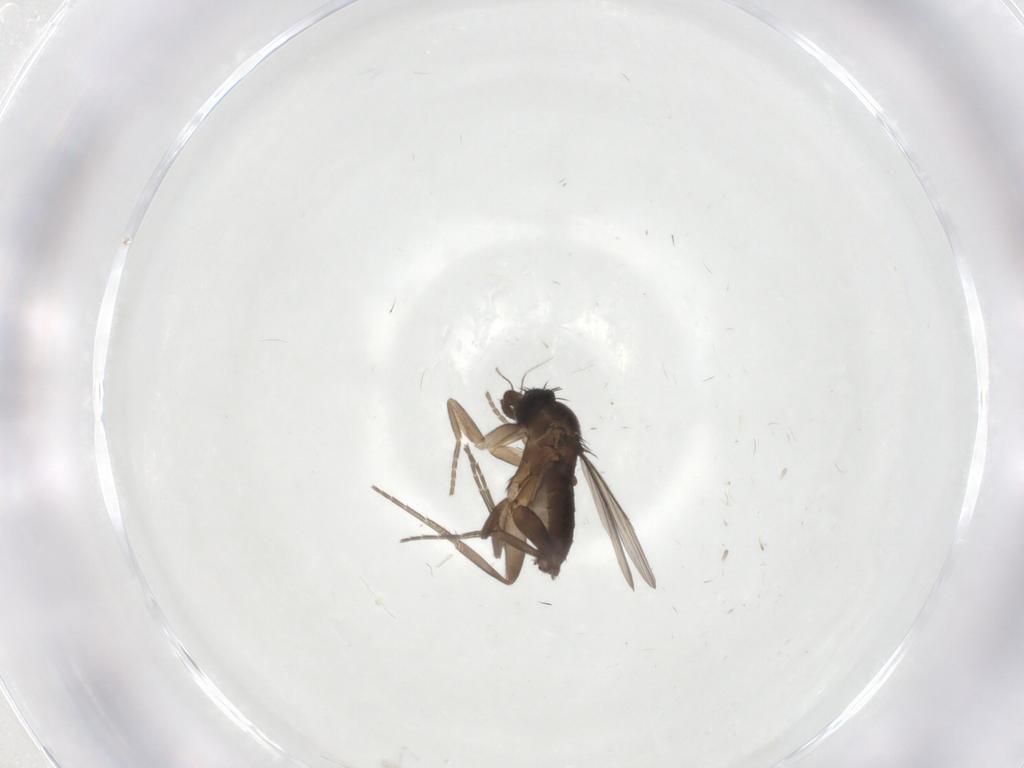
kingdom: Animalia
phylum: Arthropoda
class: Insecta
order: Diptera
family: Phoridae
